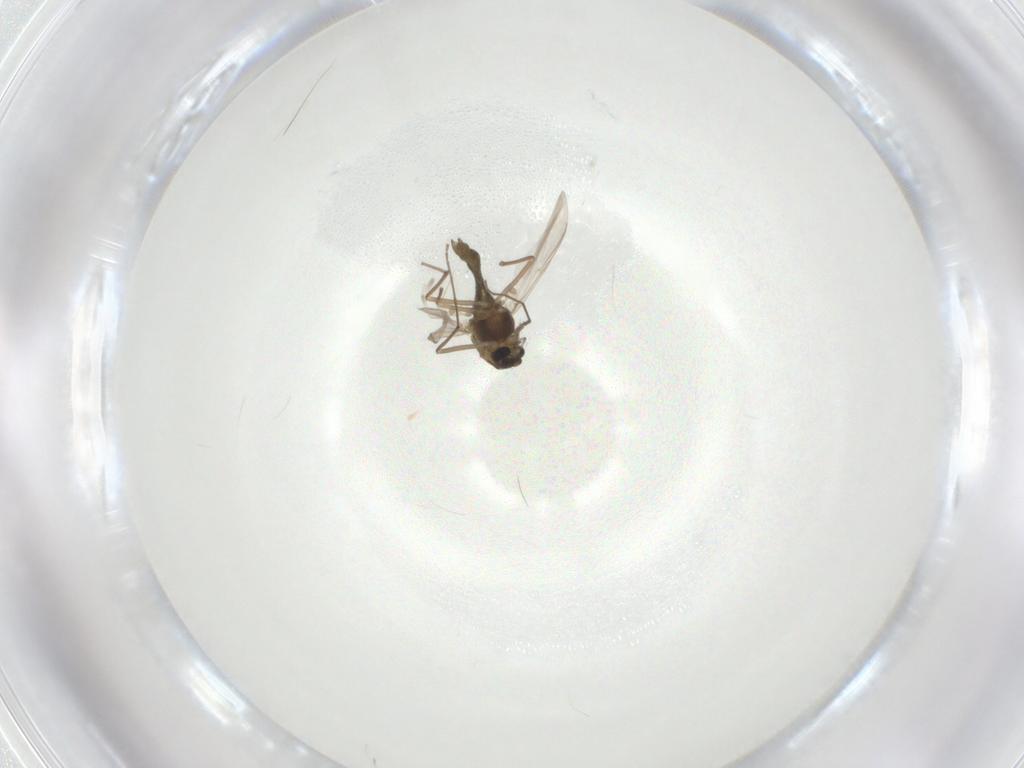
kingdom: Animalia
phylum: Arthropoda
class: Insecta
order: Diptera
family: Chironomidae
